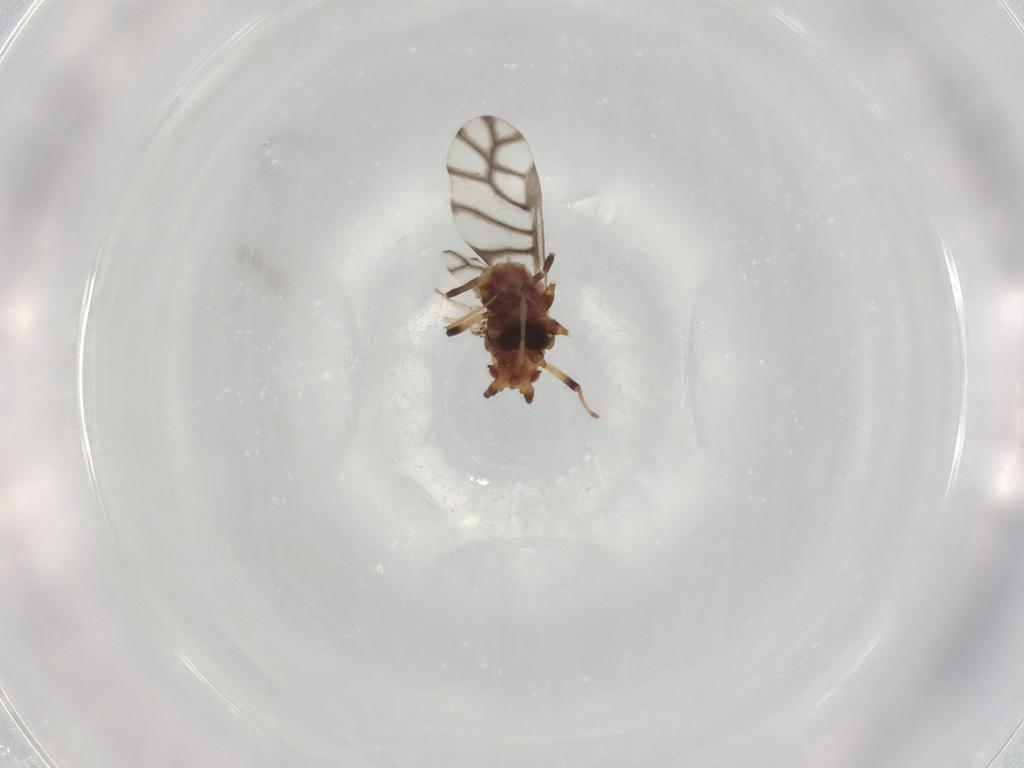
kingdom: Animalia
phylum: Arthropoda
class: Insecta
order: Hemiptera
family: Aphididae
